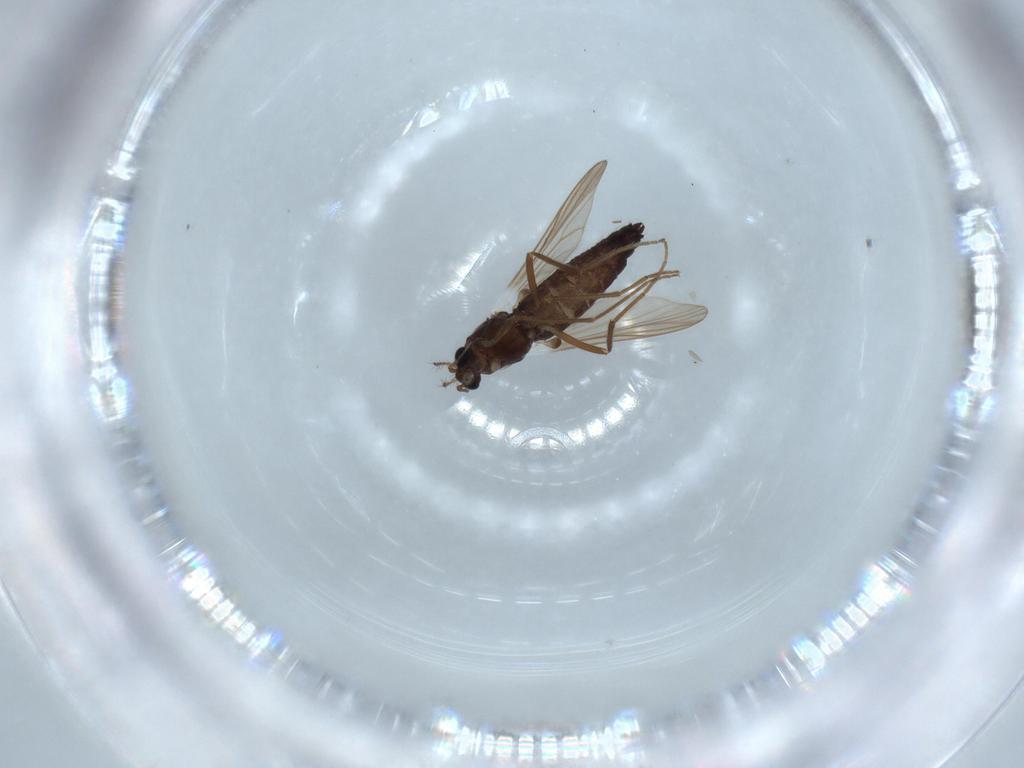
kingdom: Animalia
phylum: Arthropoda
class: Insecta
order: Diptera
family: Chironomidae
